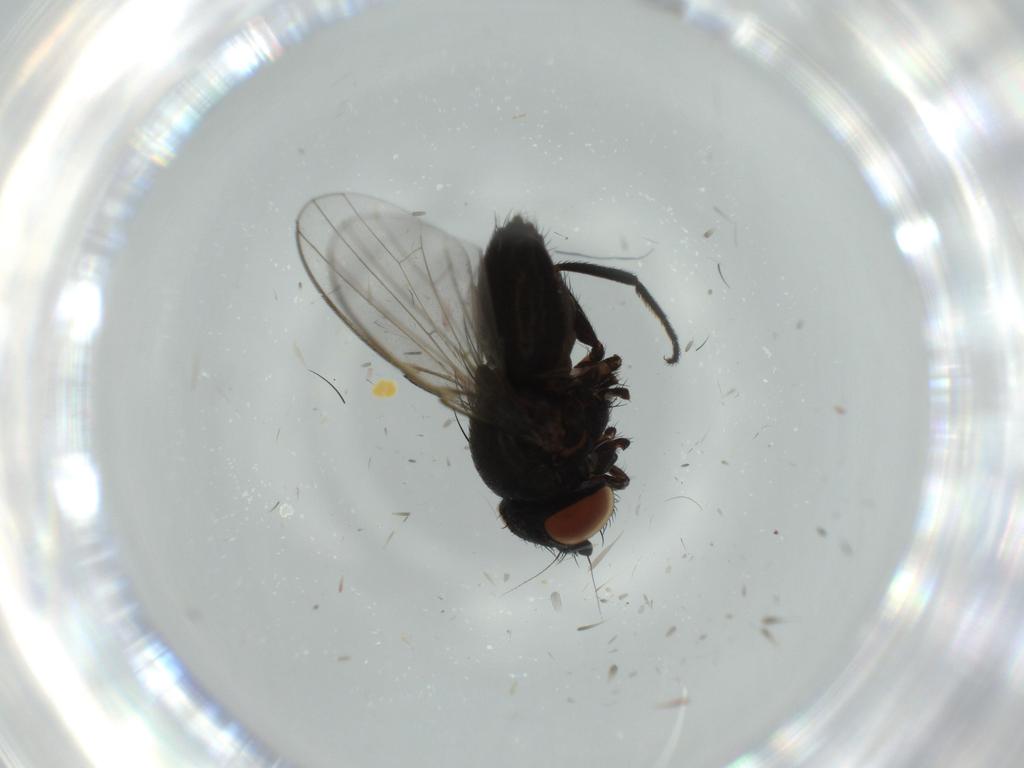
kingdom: Animalia
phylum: Arthropoda
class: Insecta
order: Diptera
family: Milichiidae
